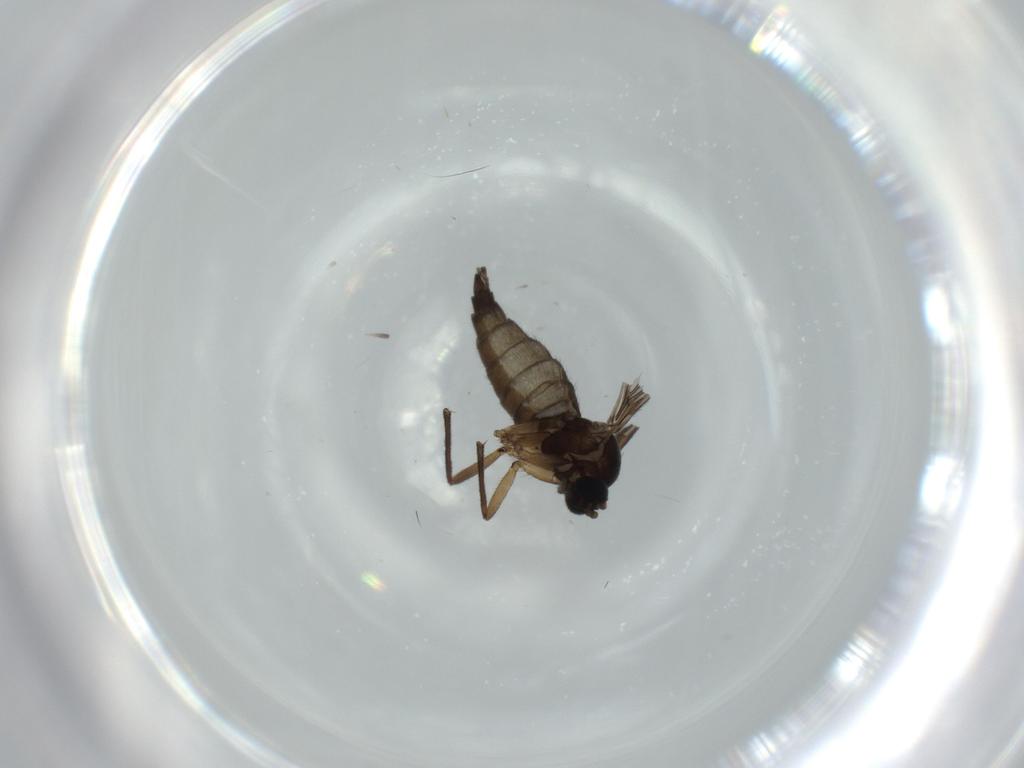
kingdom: Animalia
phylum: Arthropoda
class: Insecta
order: Diptera
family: Sciaridae
